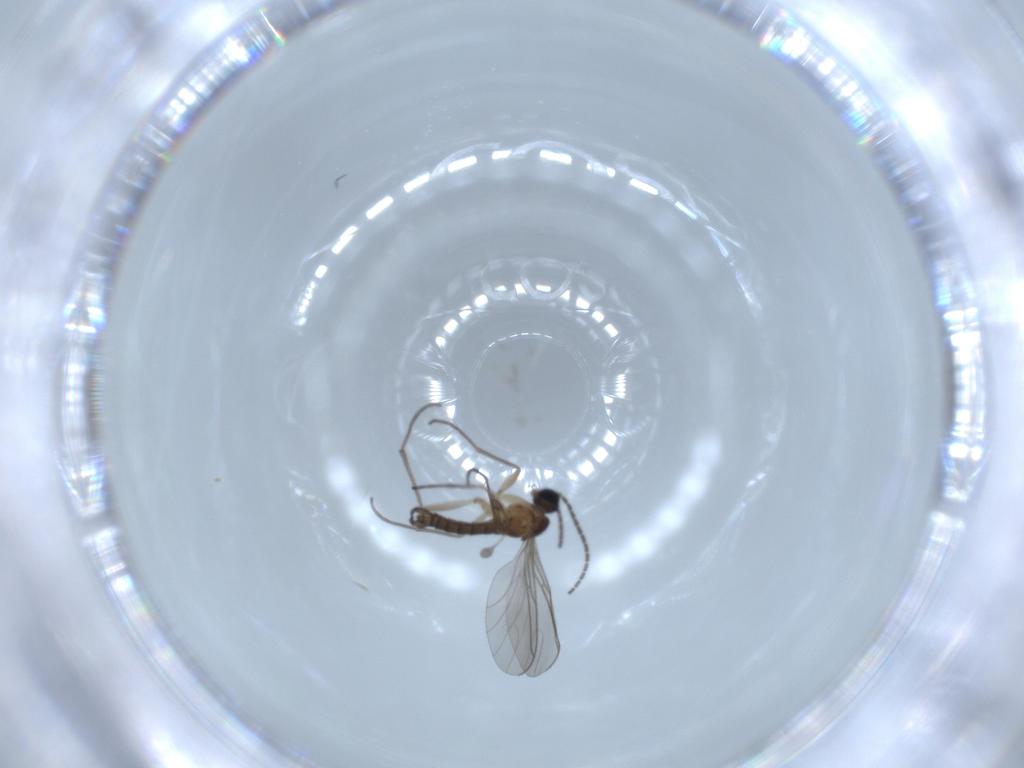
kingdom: Animalia
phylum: Arthropoda
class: Insecta
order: Diptera
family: Sciaridae
